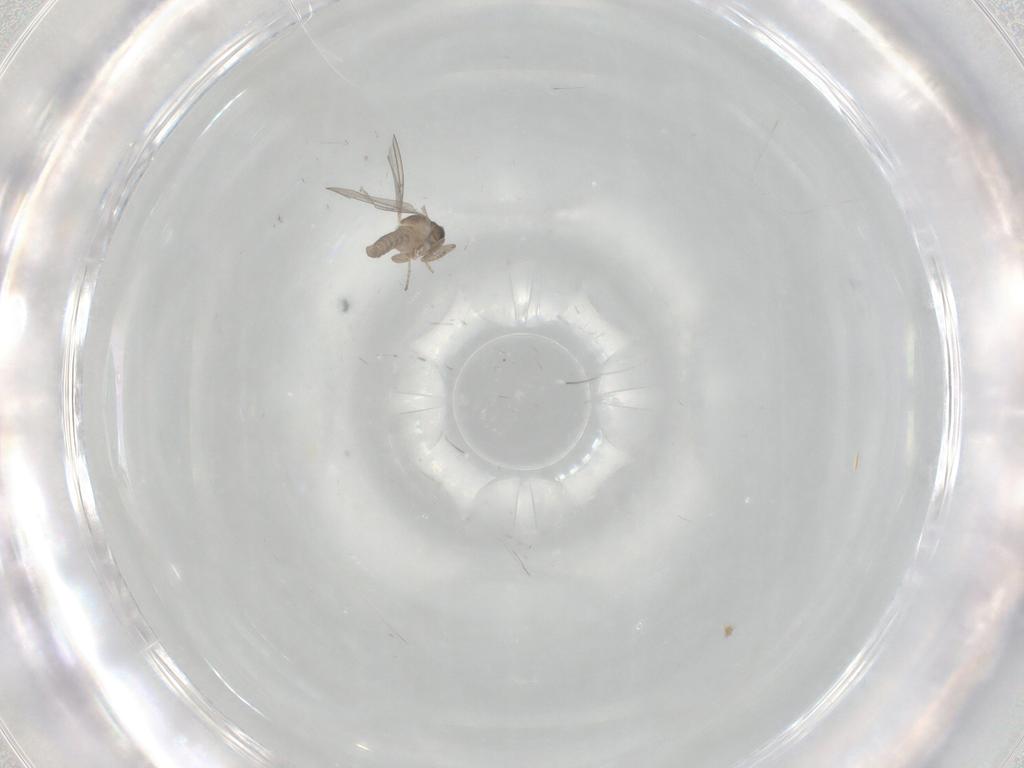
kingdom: Animalia
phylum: Arthropoda
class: Insecta
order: Diptera
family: Cecidomyiidae
